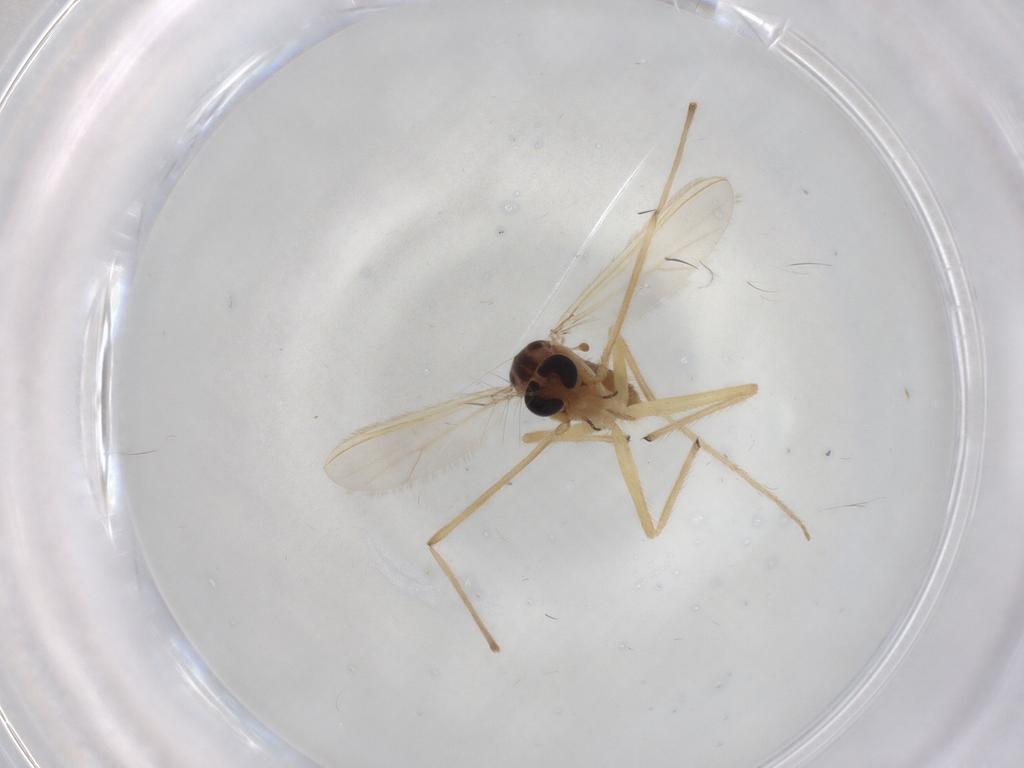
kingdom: Animalia
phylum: Arthropoda
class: Insecta
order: Diptera
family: Chironomidae
